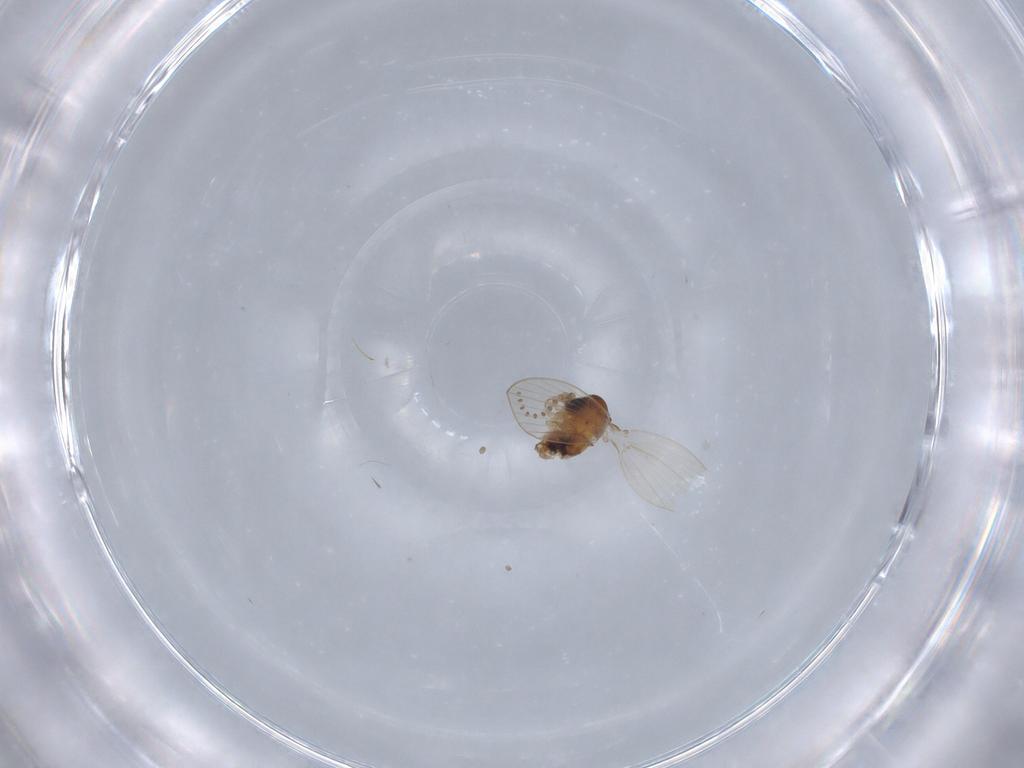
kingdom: Animalia
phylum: Arthropoda
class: Insecta
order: Diptera
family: Psychodidae
